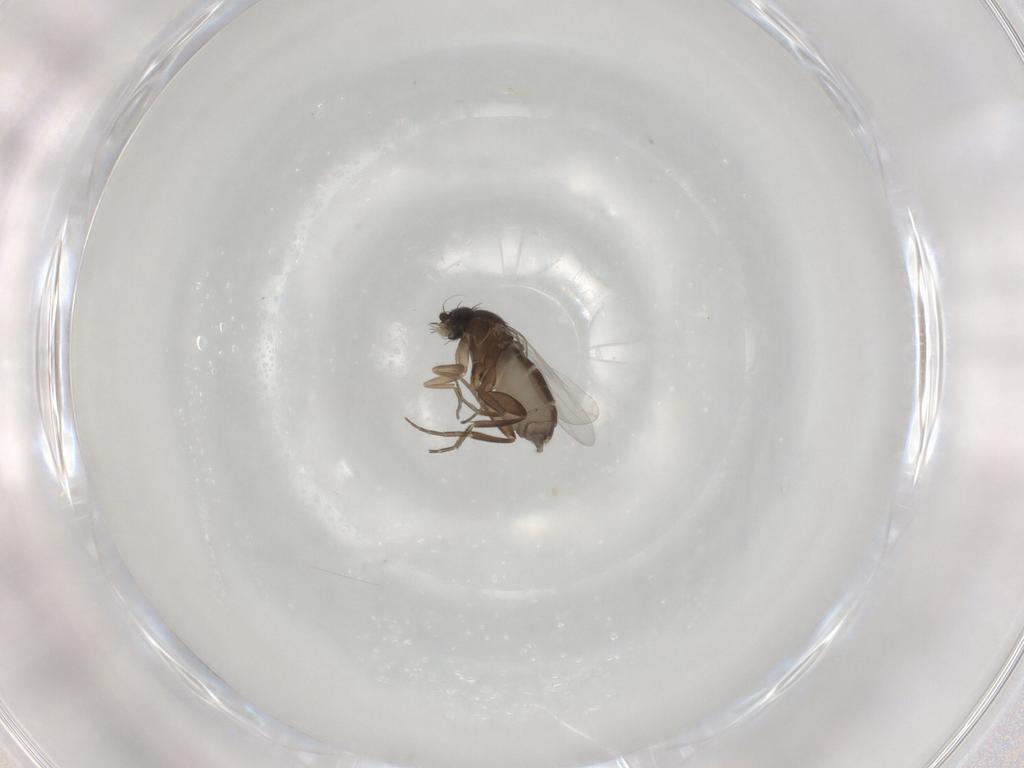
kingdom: Animalia
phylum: Arthropoda
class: Insecta
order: Diptera
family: Phoridae
